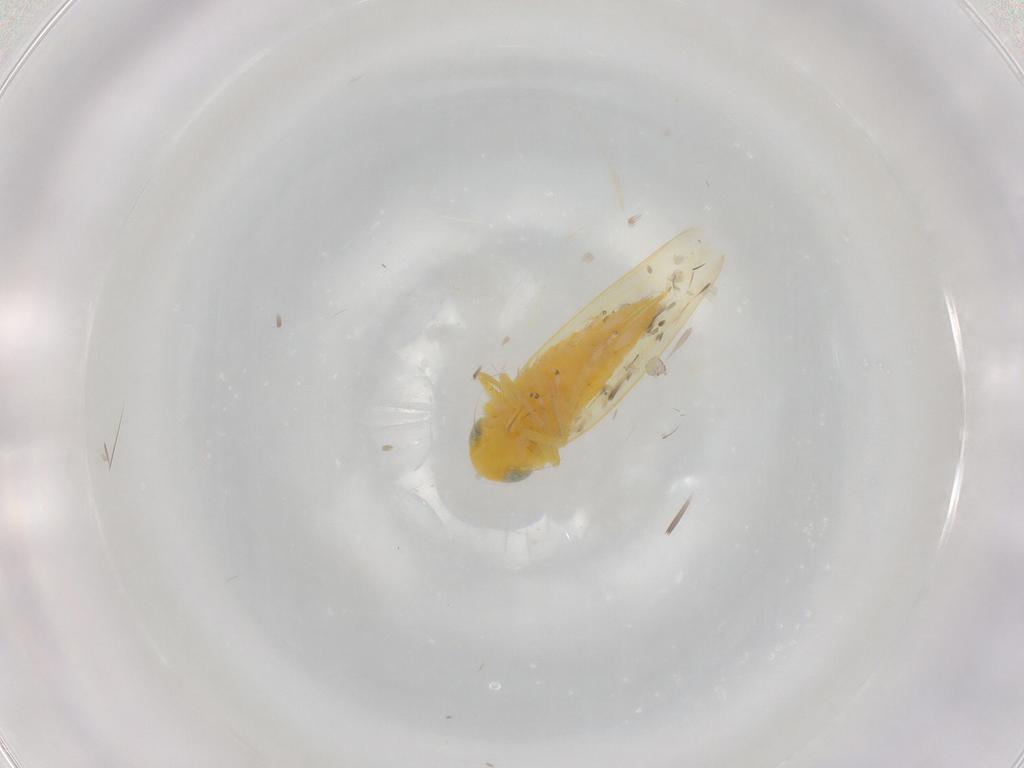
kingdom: Animalia
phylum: Arthropoda
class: Insecta
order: Hemiptera
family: Cicadellidae
